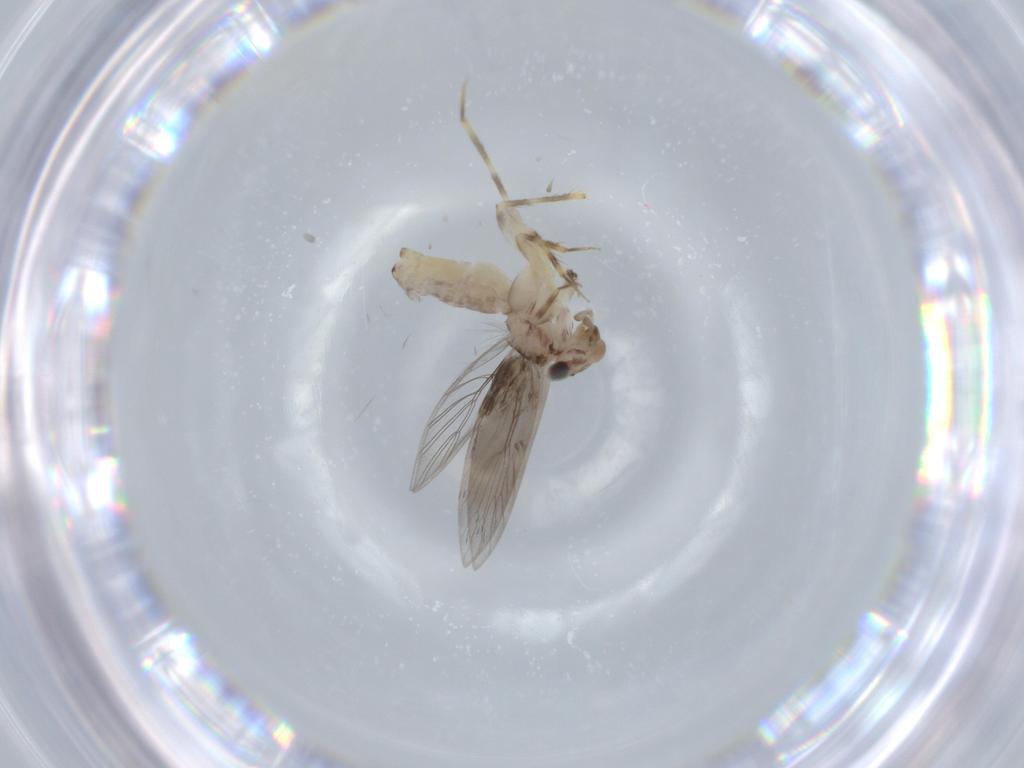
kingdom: Animalia
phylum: Arthropoda
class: Insecta
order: Psocodea
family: Lepidopsocidae
